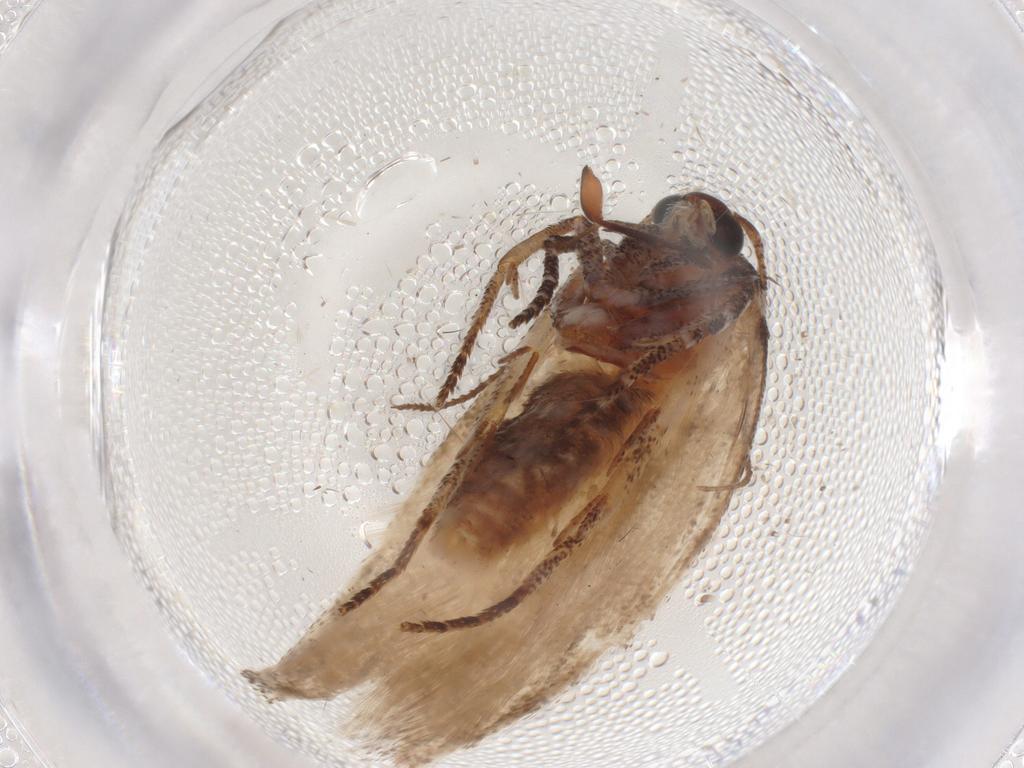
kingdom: Animalia
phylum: Arthropoda
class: Insecta
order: Lepidoptera
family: Cosmopterigidae
